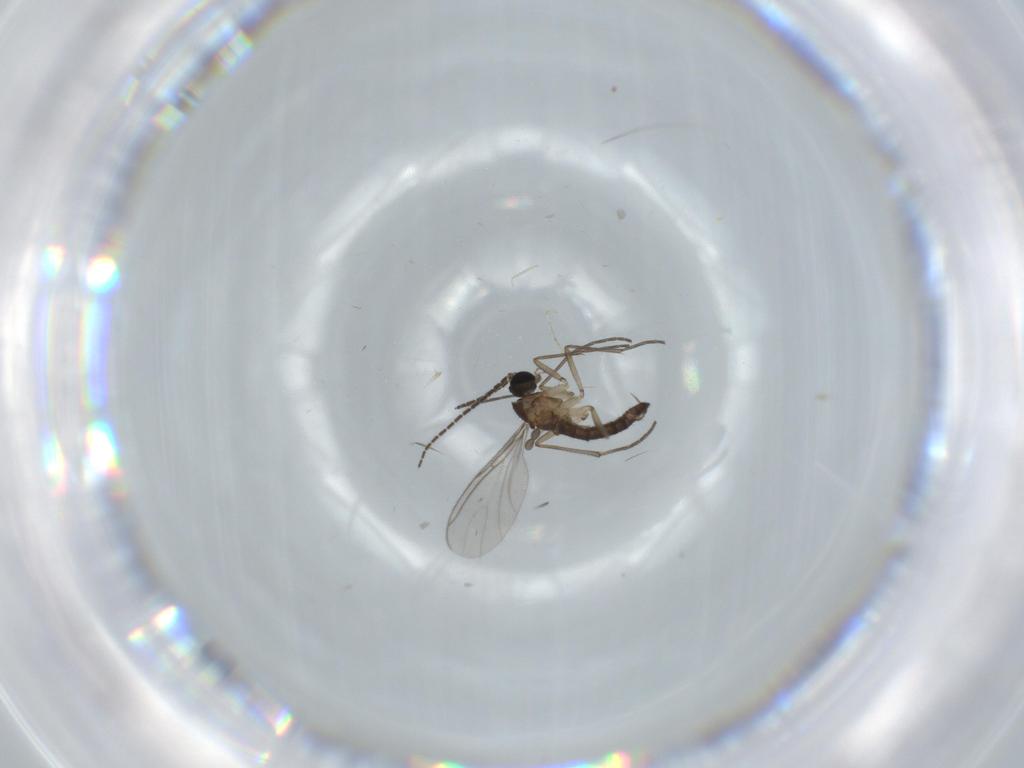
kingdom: Animalia
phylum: Arthropoda
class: Insecta
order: Diptera
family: Sciaridae
